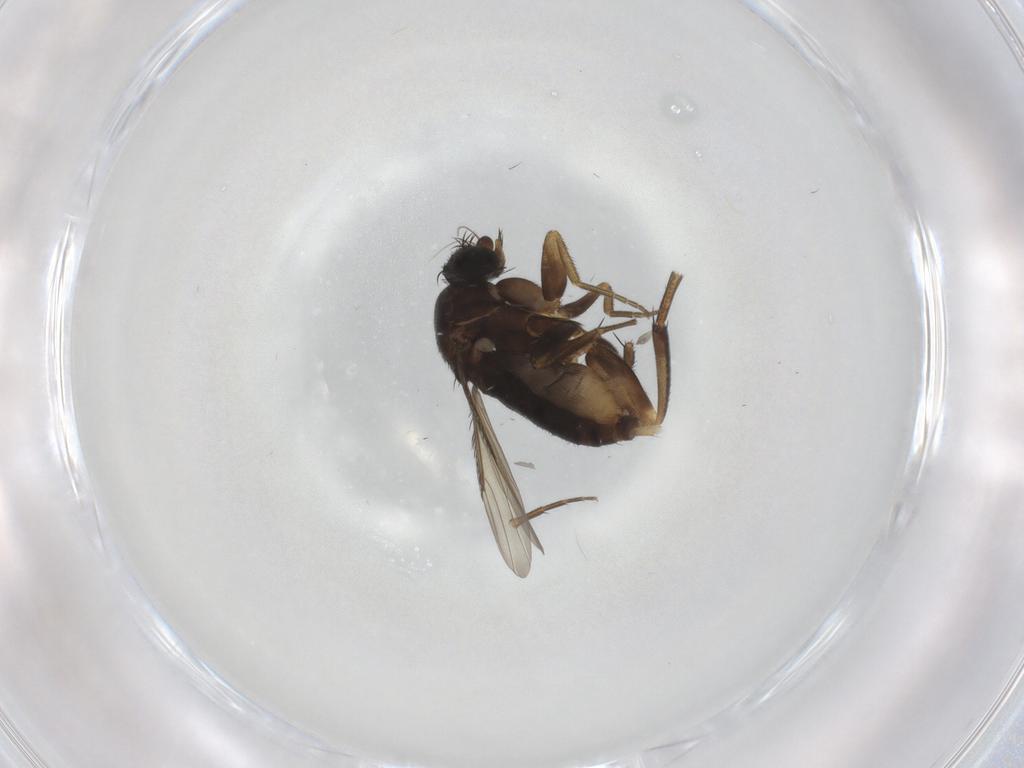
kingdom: Animalia
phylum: Arthropoda
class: Insecta
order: Diptera
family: Phoridae
